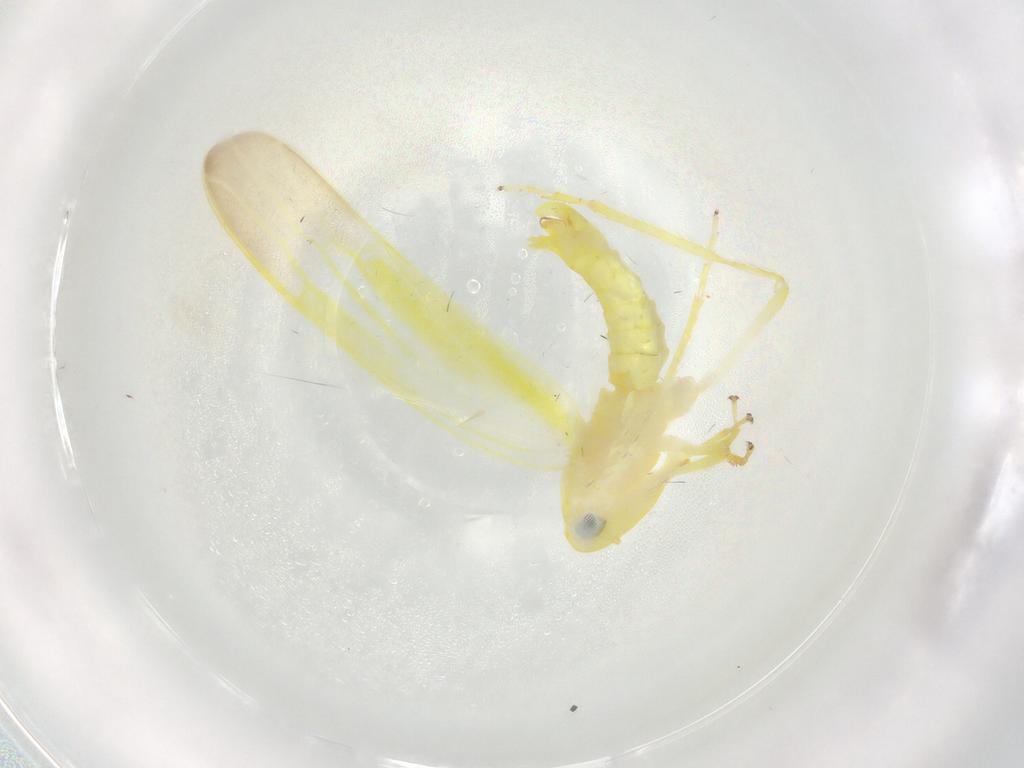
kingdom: Animalia
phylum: Arthropoda
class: Insecta
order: Hemiptera
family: Cicadellidae
